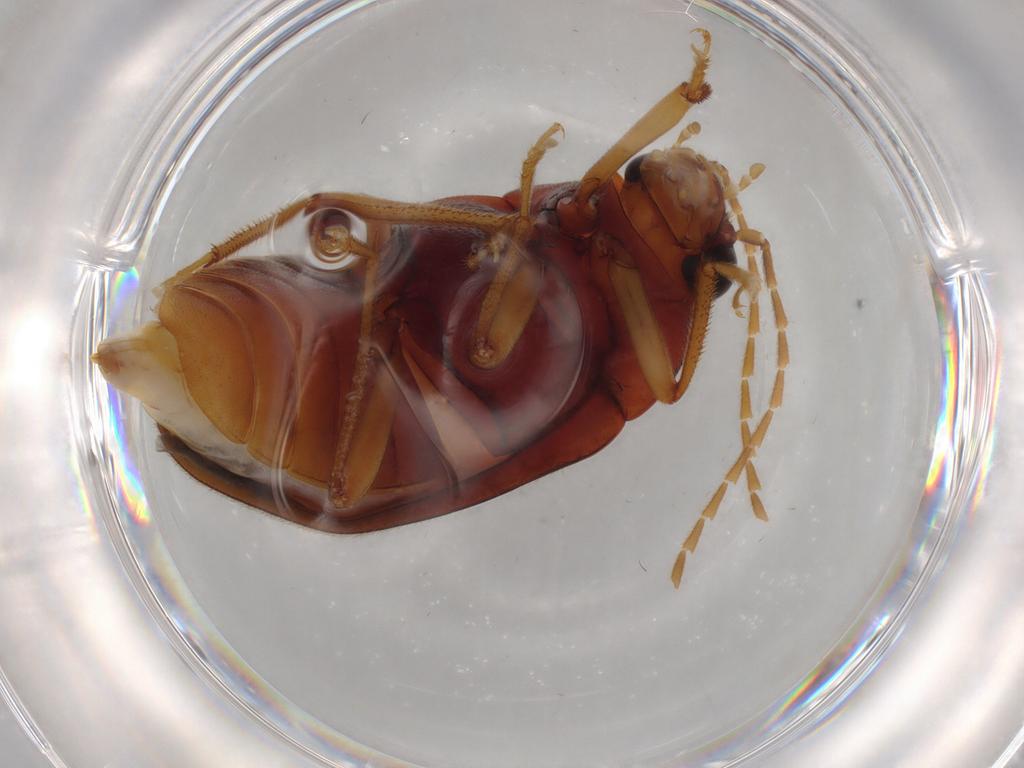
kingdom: Animalia
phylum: Arthropoda
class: Insecta
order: Coleoptera
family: Ptilodactylidae
